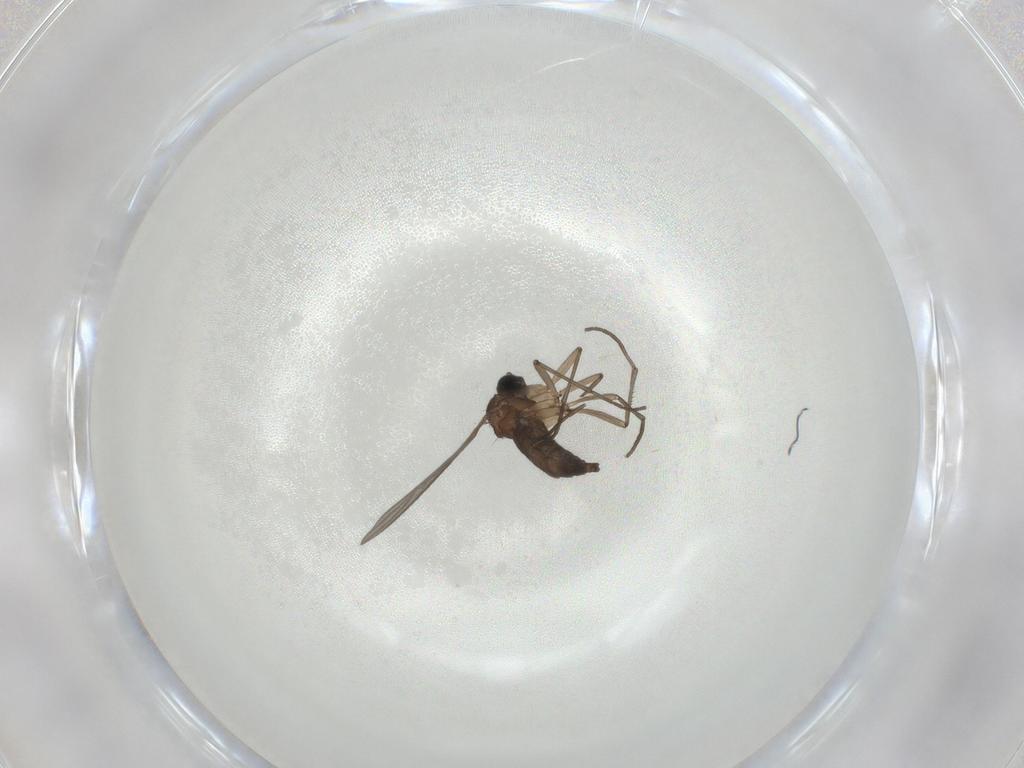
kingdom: Animalia
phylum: Arthropoda
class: Insecta
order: Diptera
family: Sciaridae
